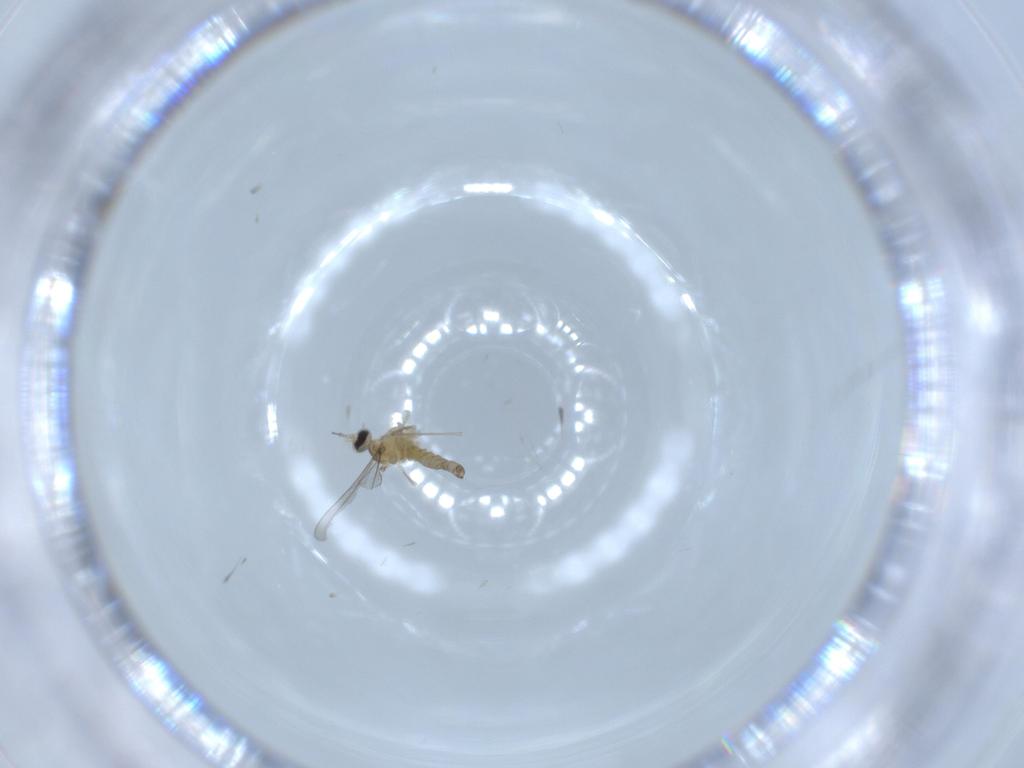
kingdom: Animalia
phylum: Arthropoda
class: Insecta
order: Diptera
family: Cecidomyiidae
